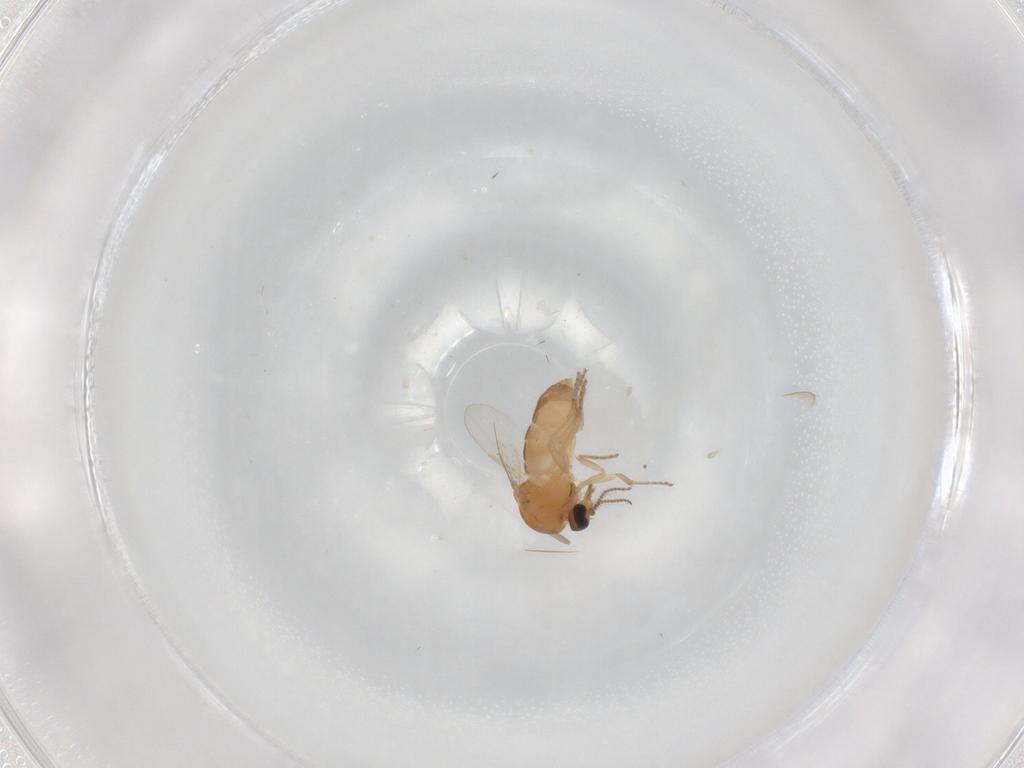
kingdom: Animalia
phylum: Arthropoda
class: Insecta
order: Diptera
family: Ceratopogonidae
